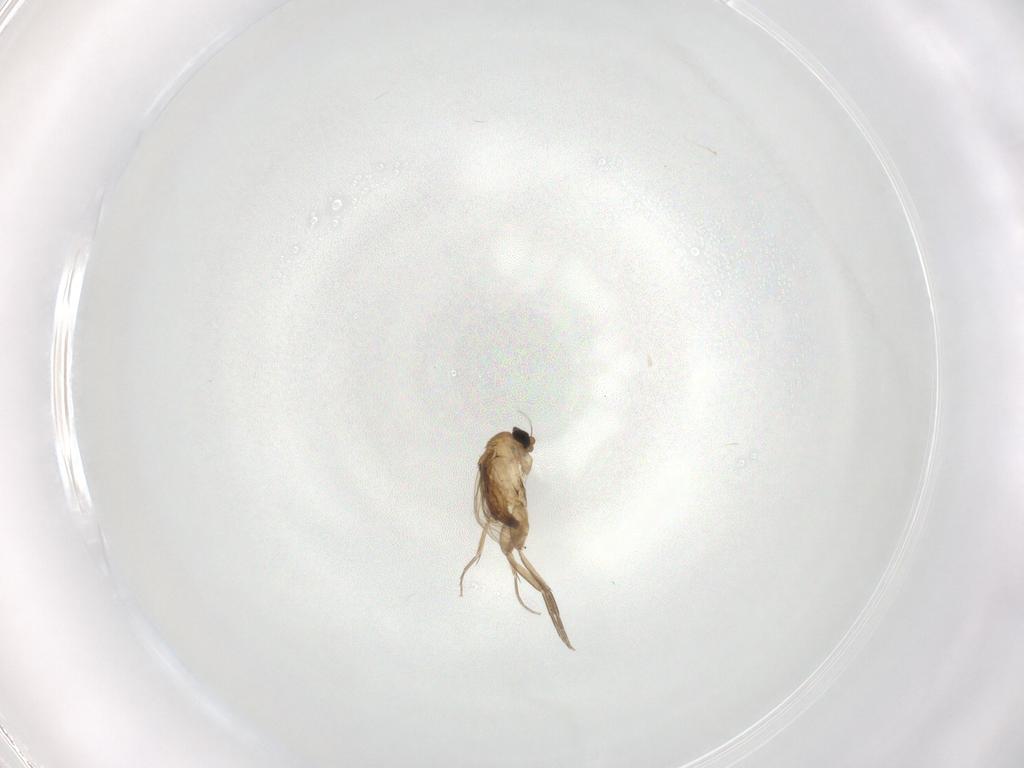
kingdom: Animalia
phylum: Arthropoda
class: Insecta
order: Diptera
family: Phoridae
